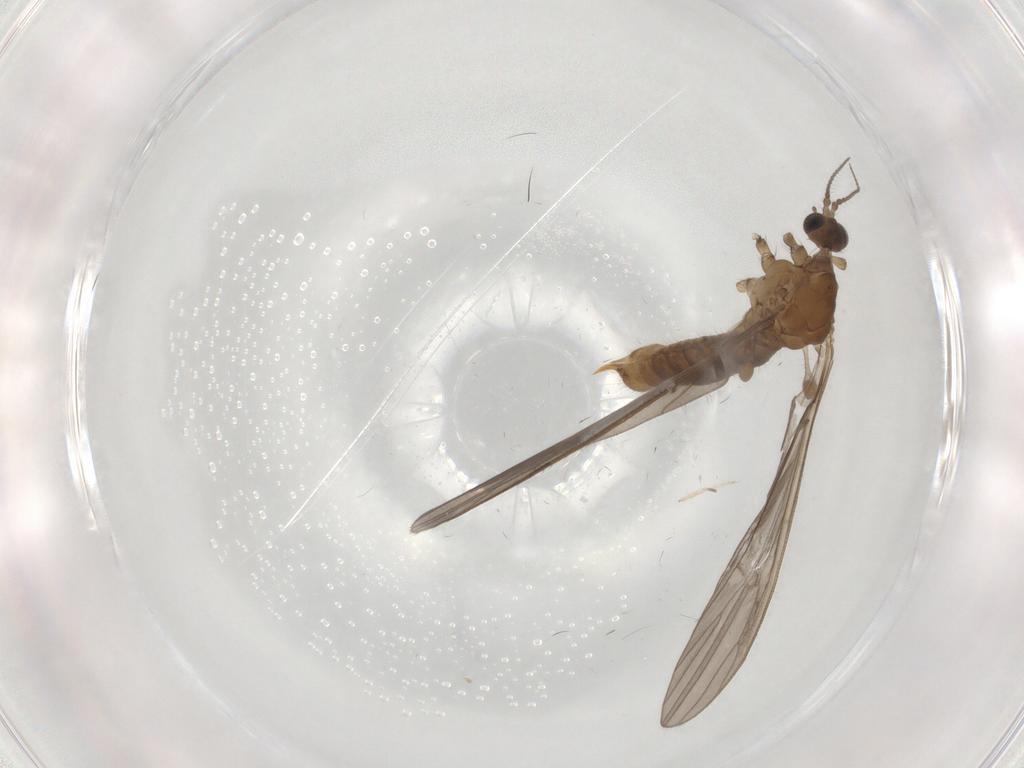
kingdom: Animalia
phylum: Arthropoda
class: Insecta
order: Diptera
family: Limoniidae
